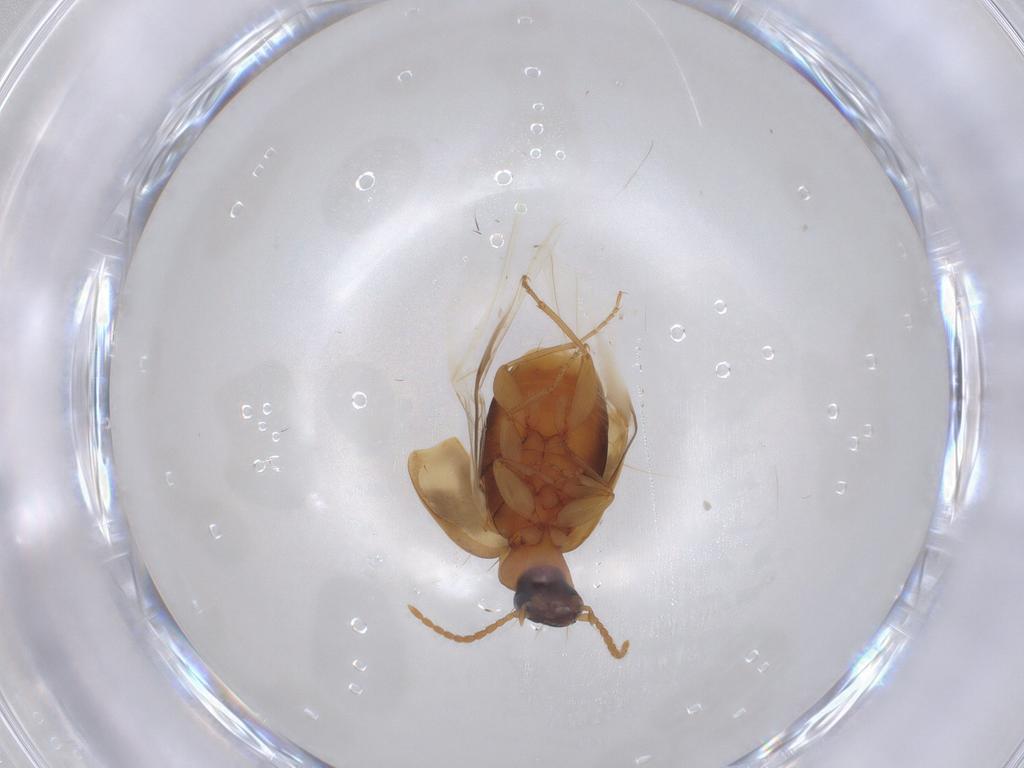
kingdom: Animalia
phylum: Arthropoda
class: Insecta
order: Coleoptera
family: Carabidae
